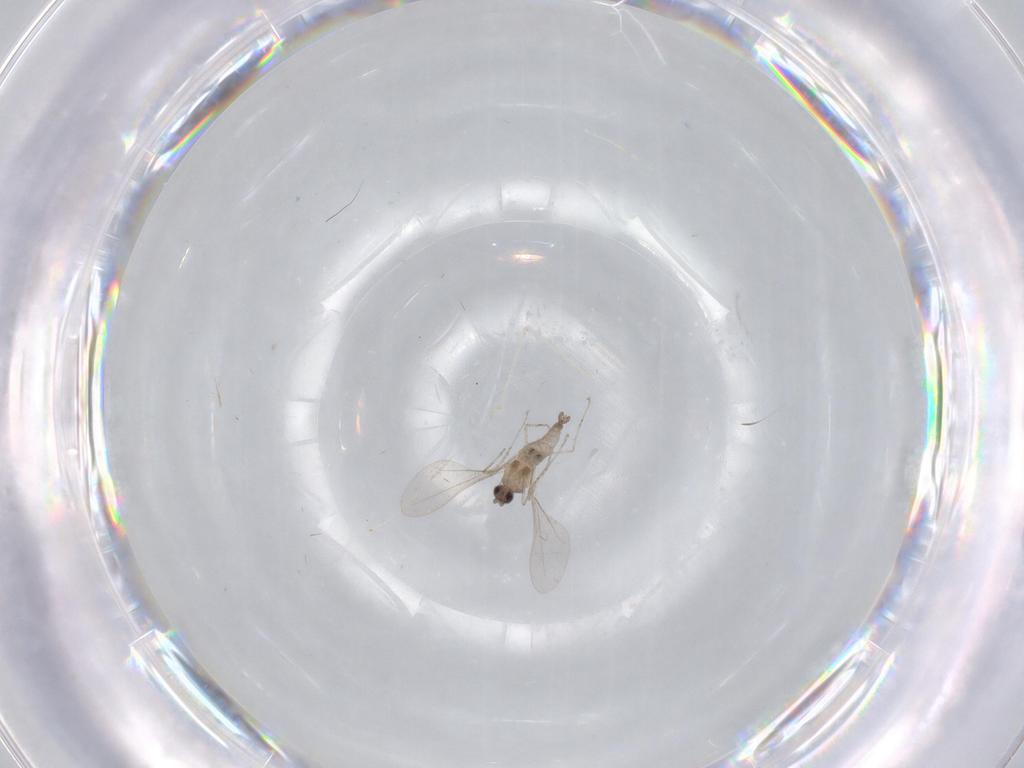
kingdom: Animalia
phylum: Arthropoda
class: Insecta
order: Diptera
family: Cecidomyiidae
